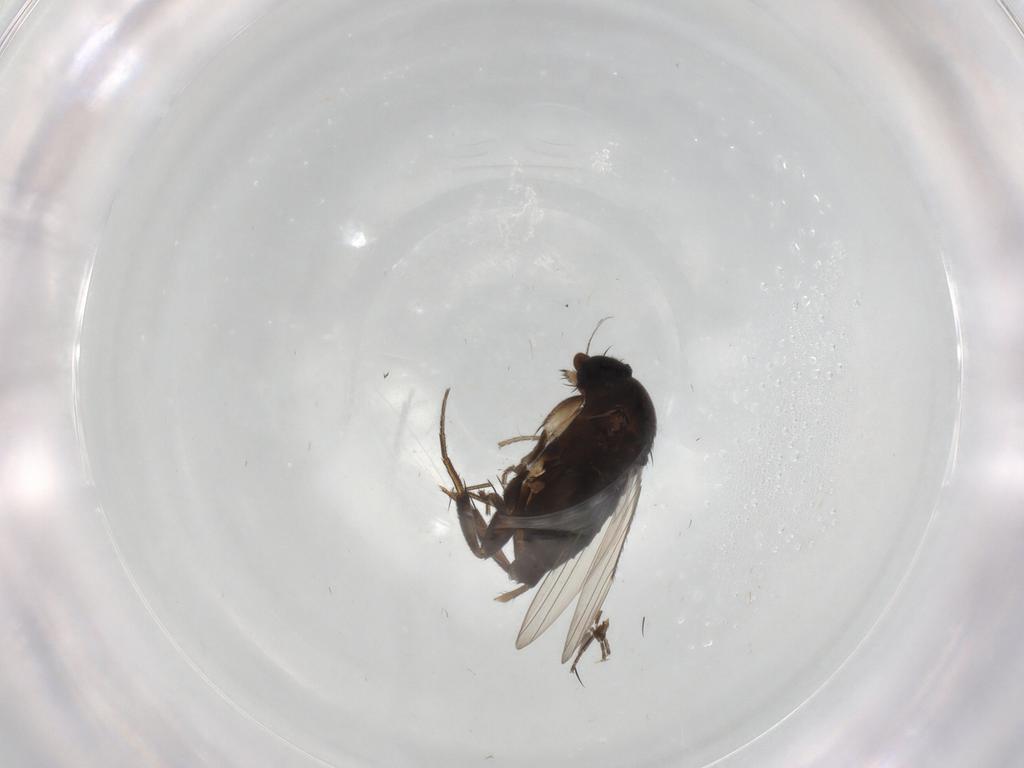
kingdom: Animalia
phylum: Arthropoda
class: Insecta
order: Diptera
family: Phoridae
